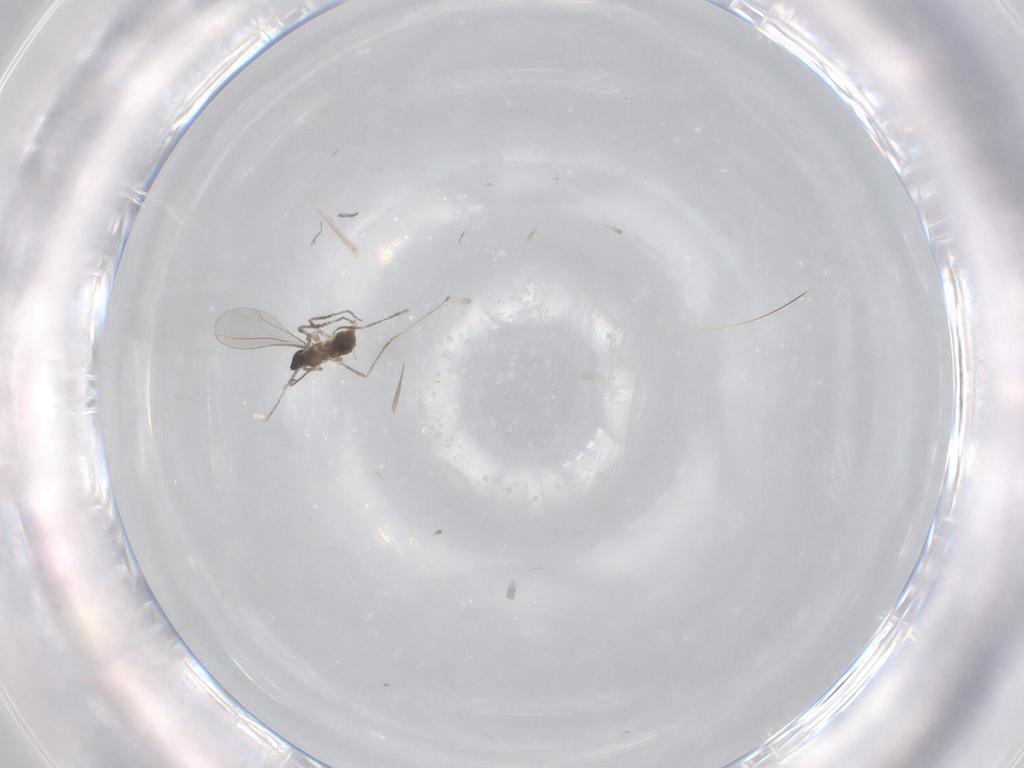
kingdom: Animalia
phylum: Arthropoda
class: Insecta
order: Diptera
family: Cecidomyiidae
